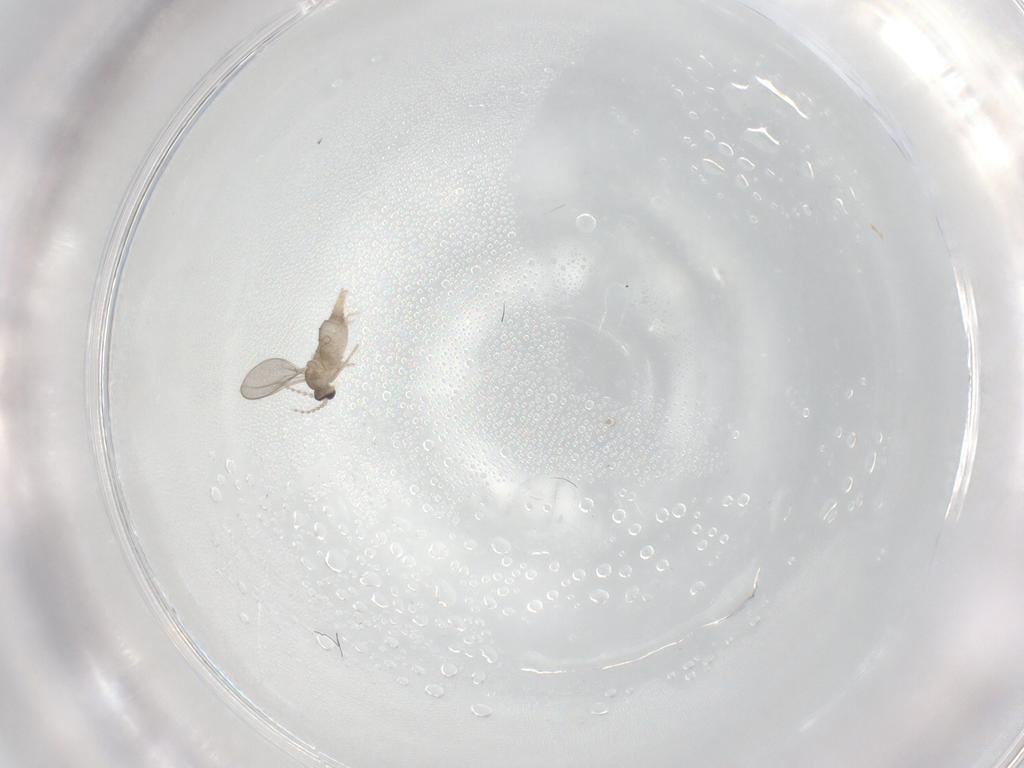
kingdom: Animalia
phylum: Arthropoda
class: Insecta
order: Diptera
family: Cecidomyiidae
